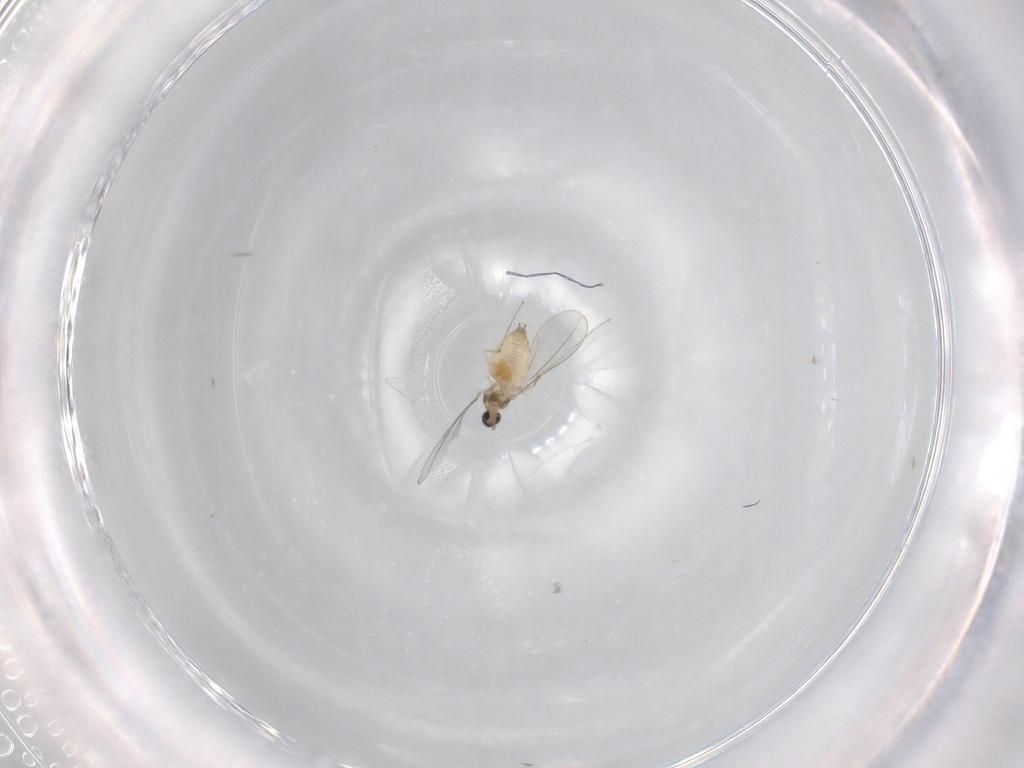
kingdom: Animalia
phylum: Arthropoda
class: Insecta
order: Diptera
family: Cecidomyiidae
